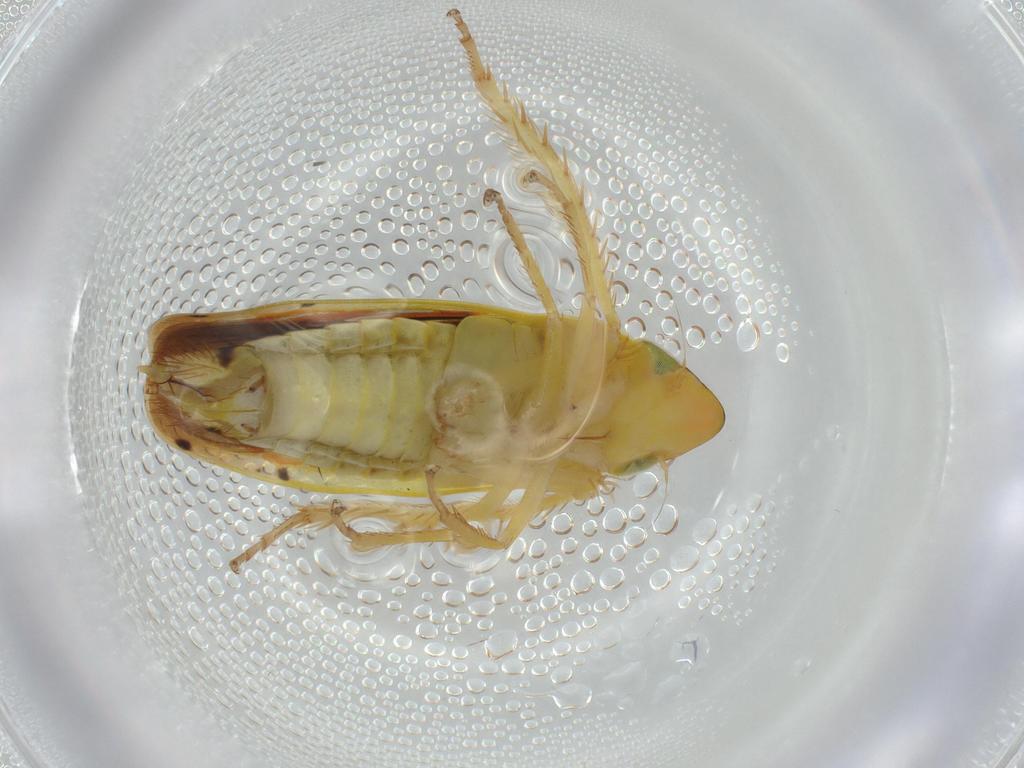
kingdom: Animalia
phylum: Arthropoda
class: Insecta
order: Hemiptera
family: Cicadellidae
